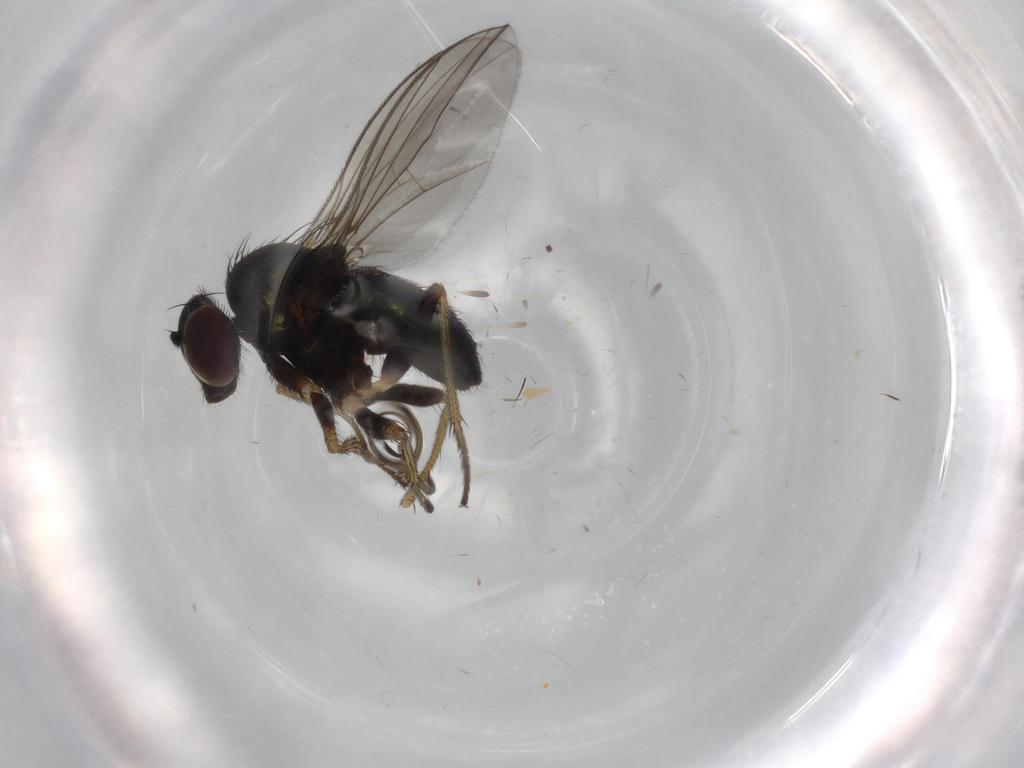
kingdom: Animalia
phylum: Arthropoda
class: Insecta
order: Diptera
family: Dolichopodidae
